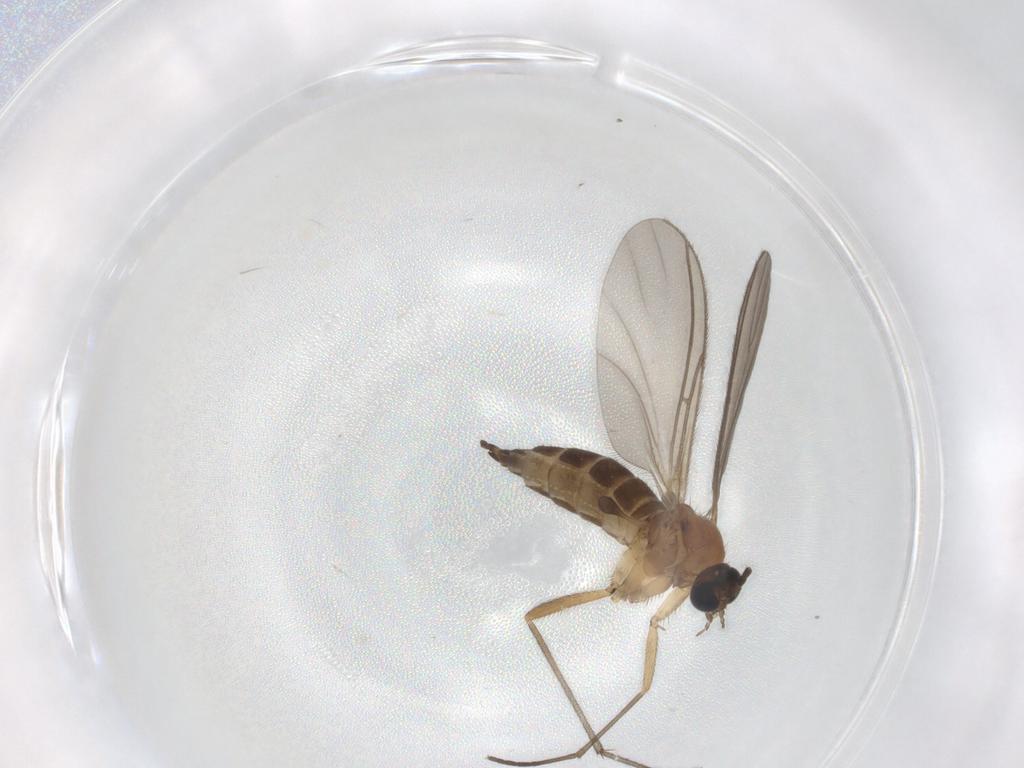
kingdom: Animalia
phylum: Arthropoda
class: Insecta
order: Diptera
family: Sciaridae
